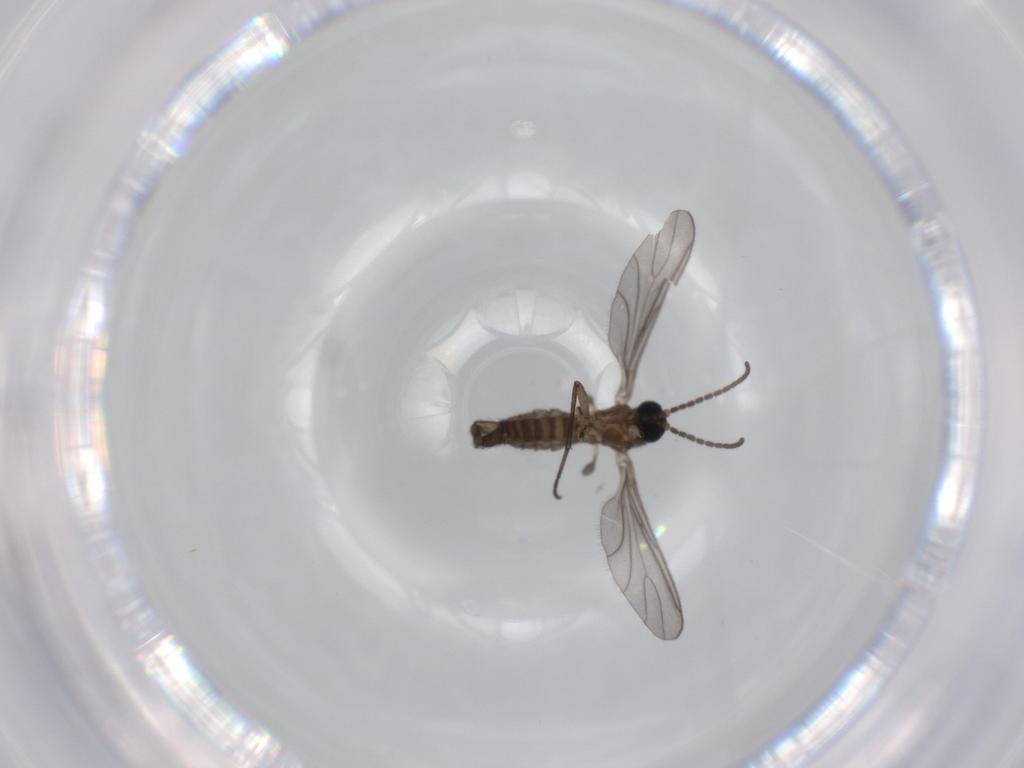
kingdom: Animalia
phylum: Arthropoda
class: Insecta
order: Diptera
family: Sciaridae
